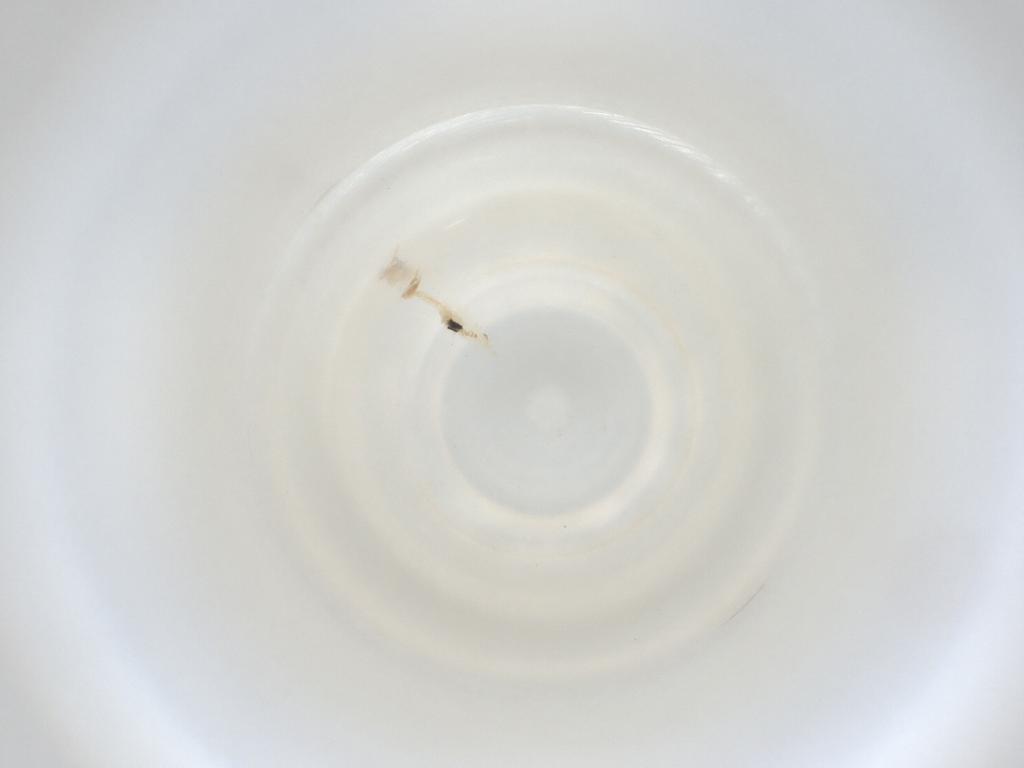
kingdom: Animalia
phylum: Arthropoda
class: Insecta
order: Diptera
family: Cecidomyiidae
